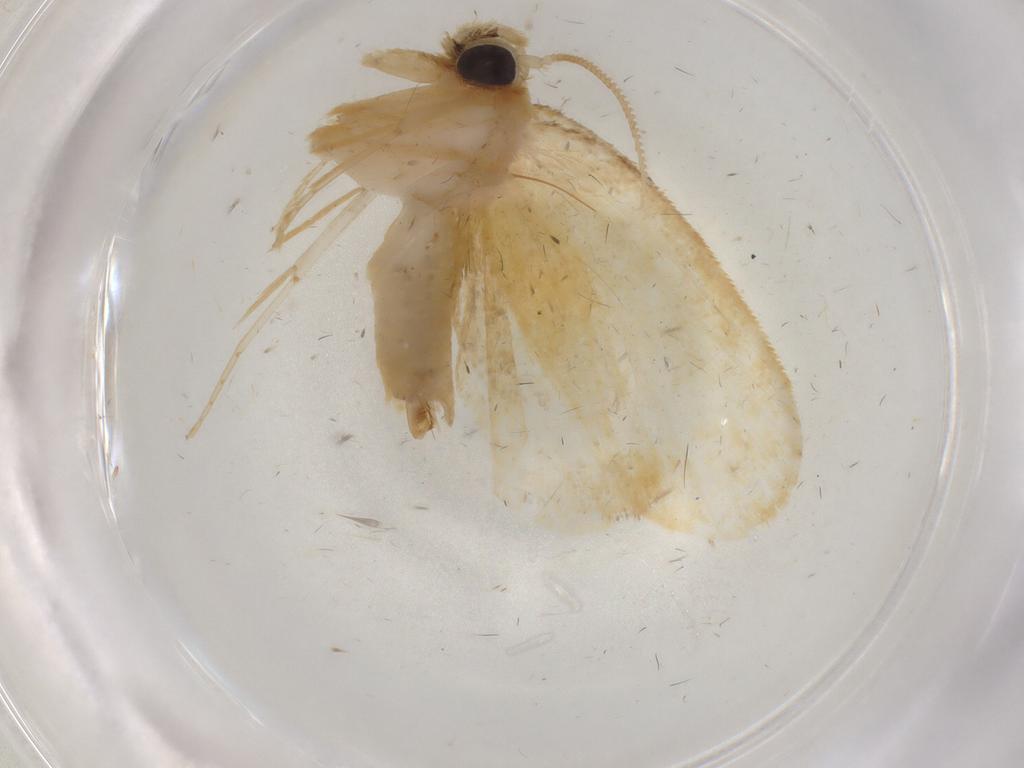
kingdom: Animalia
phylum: Arthropoda
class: Insecta
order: Lepidoptera
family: Psychidae
